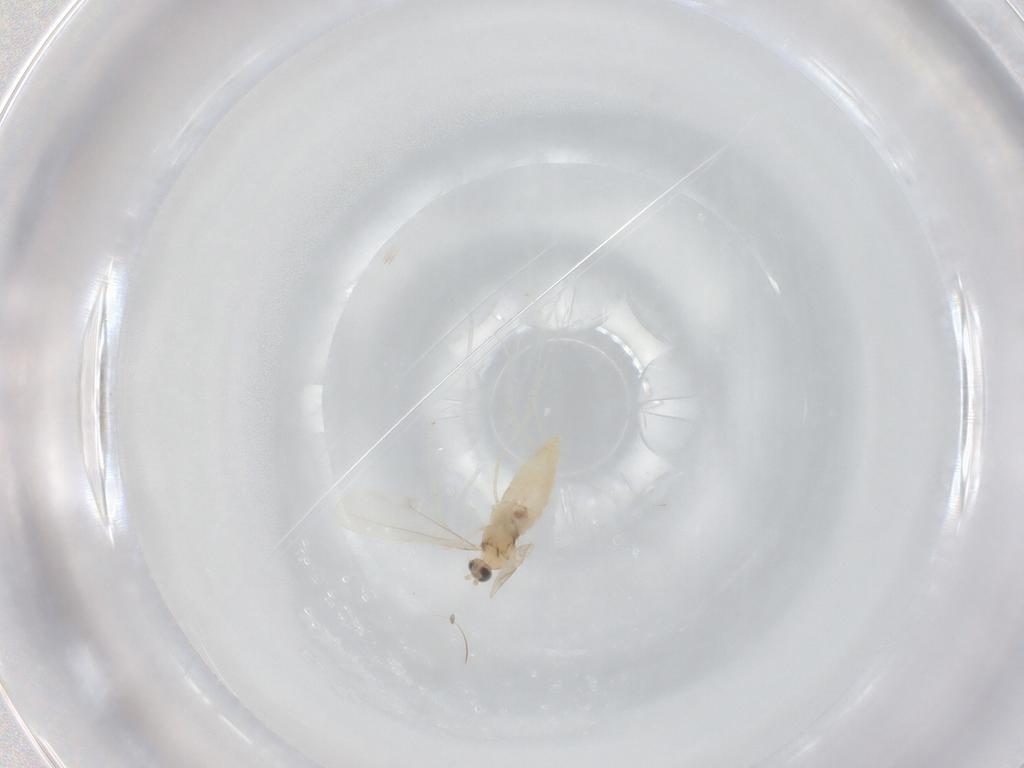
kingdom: Animalia
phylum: Arthropoda
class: Insecta
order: Diptera
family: Cecidomyiidae
